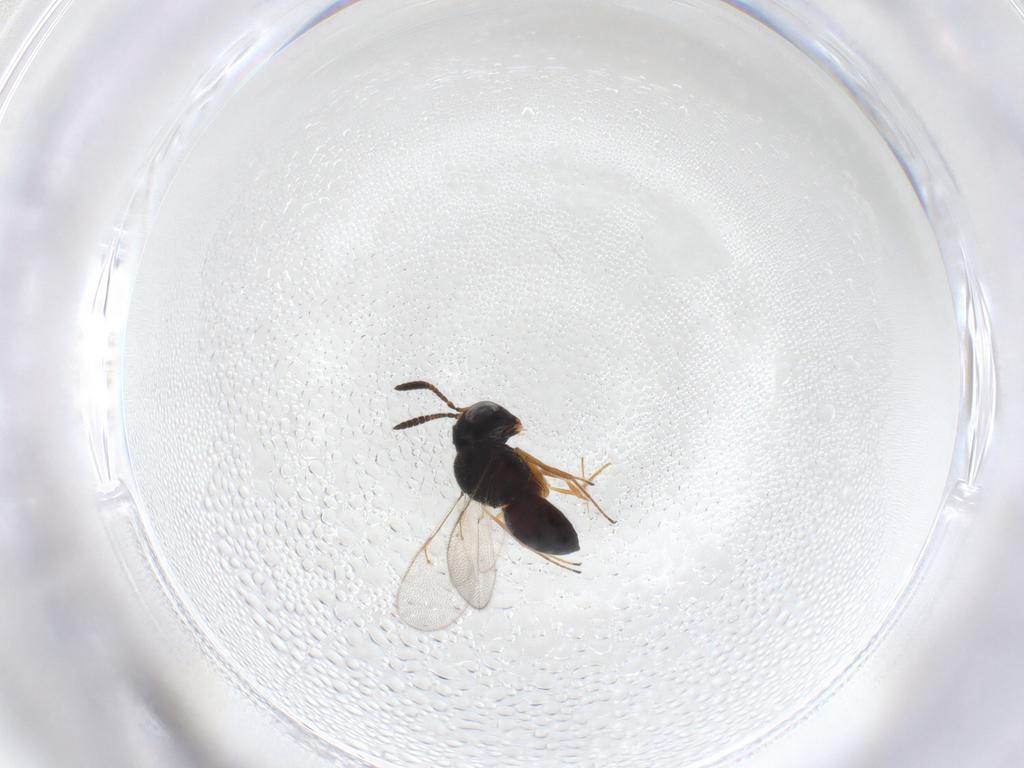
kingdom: Animalia
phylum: Arthropoda
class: Insecta
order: Hymenoptera
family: Scelionidae
